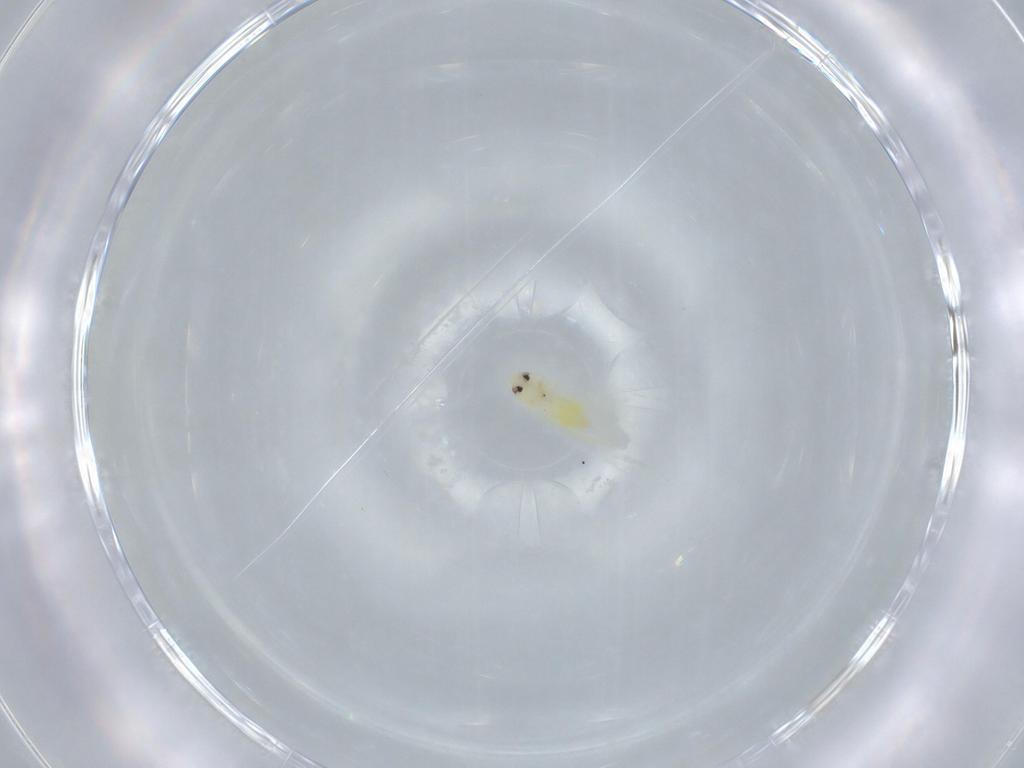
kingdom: Animalia
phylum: Arthropoda
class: Insecta
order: Hemiptera
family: Aleyrodidae
